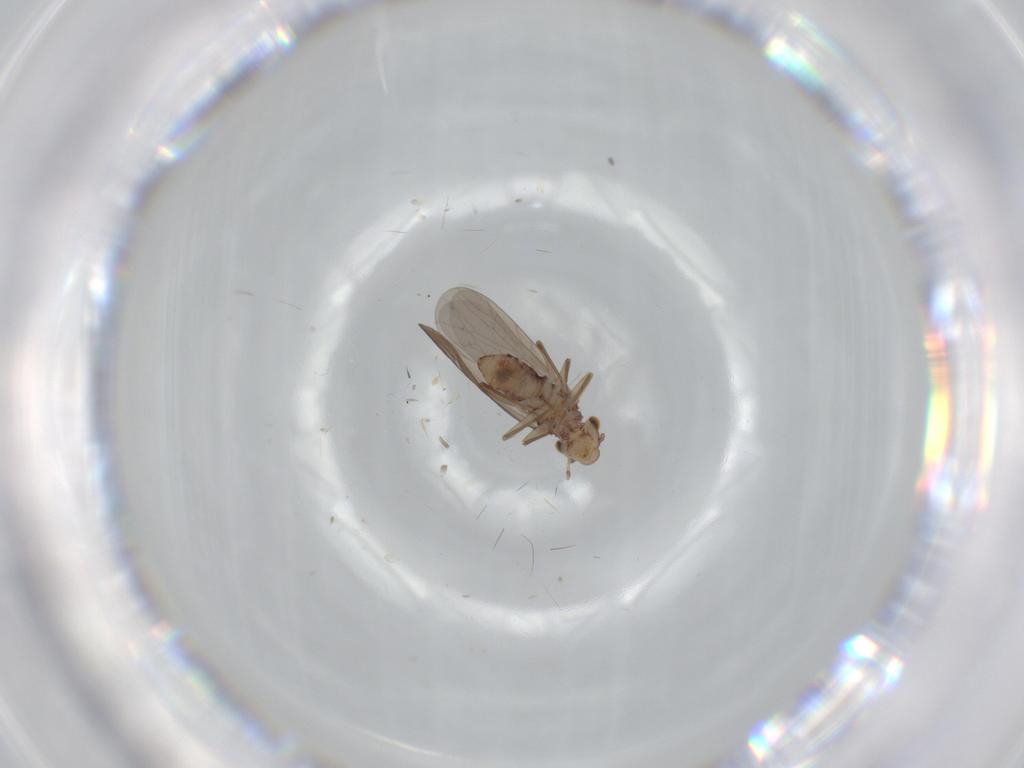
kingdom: Animalia
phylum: Arthropoda
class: Insecta
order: Psocodea
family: Lepidopsocidae
